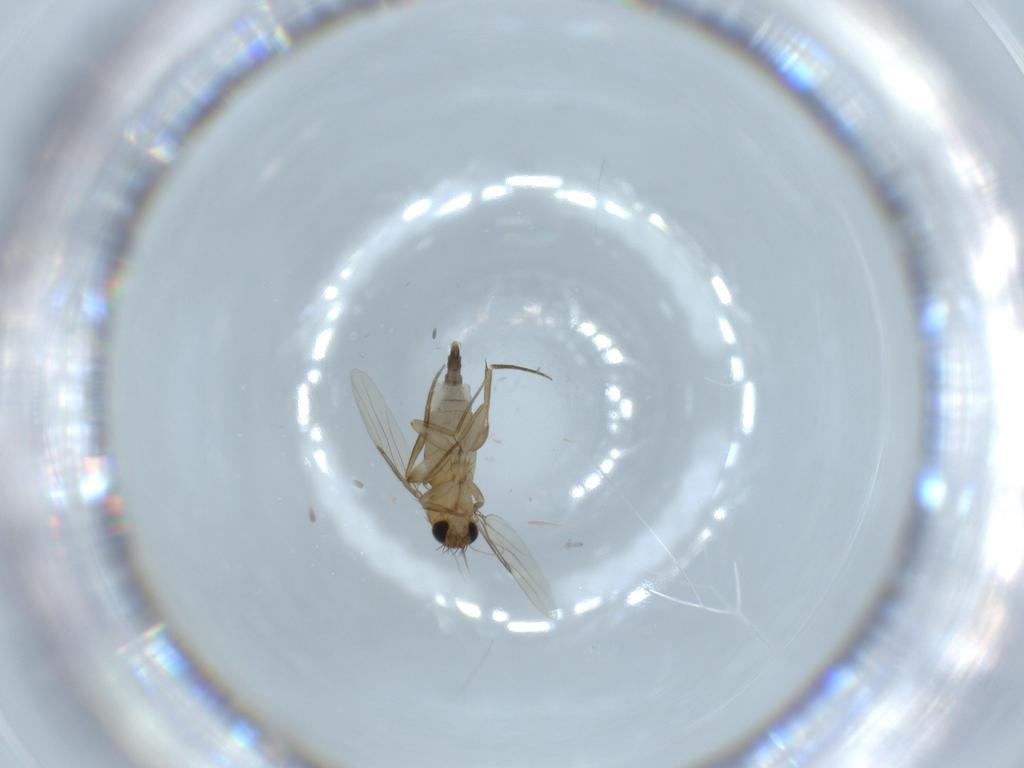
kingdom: Animalia
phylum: Arthropoda
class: Insecta
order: Diptera
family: Phoridae
